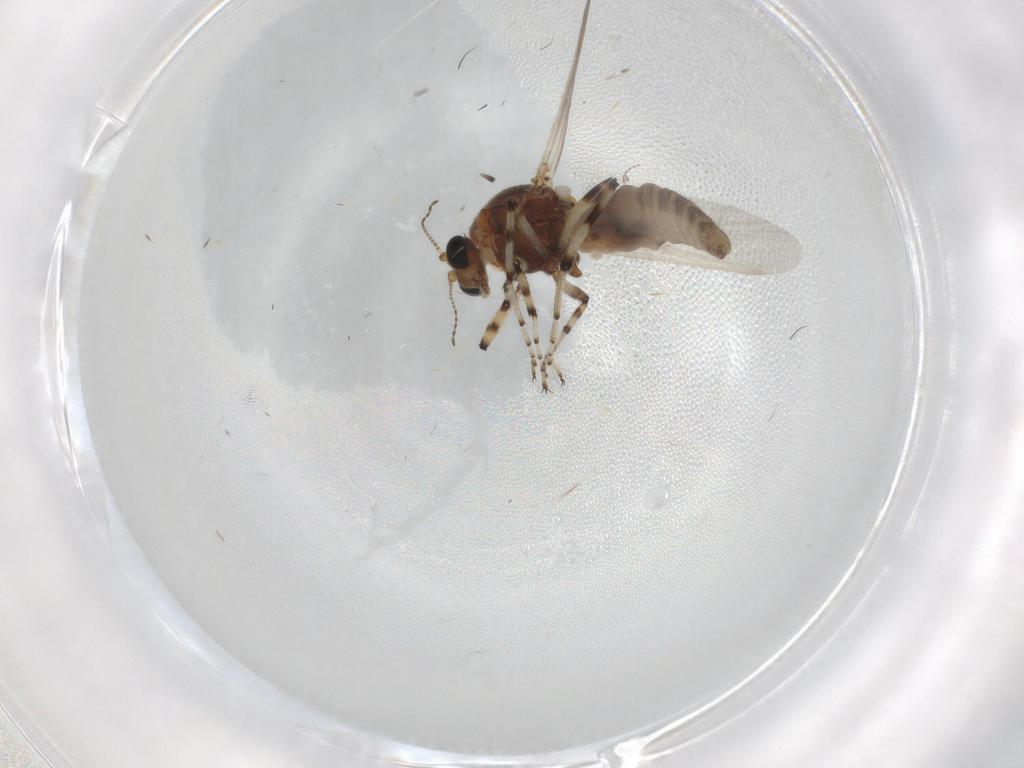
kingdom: Animalia
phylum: Arthropoda
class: Insecta
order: Diptera
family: Ceratopogonidae
